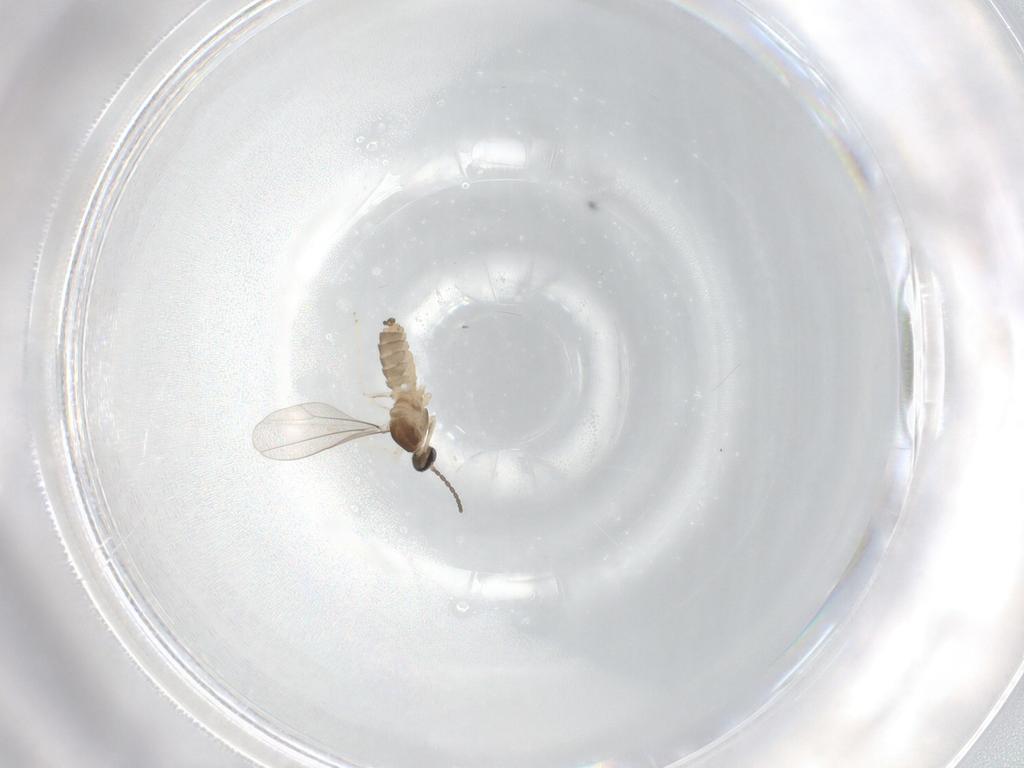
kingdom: Animalia
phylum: Arthropoda
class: Insecta
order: Diptera
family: Cecidomyiidae
